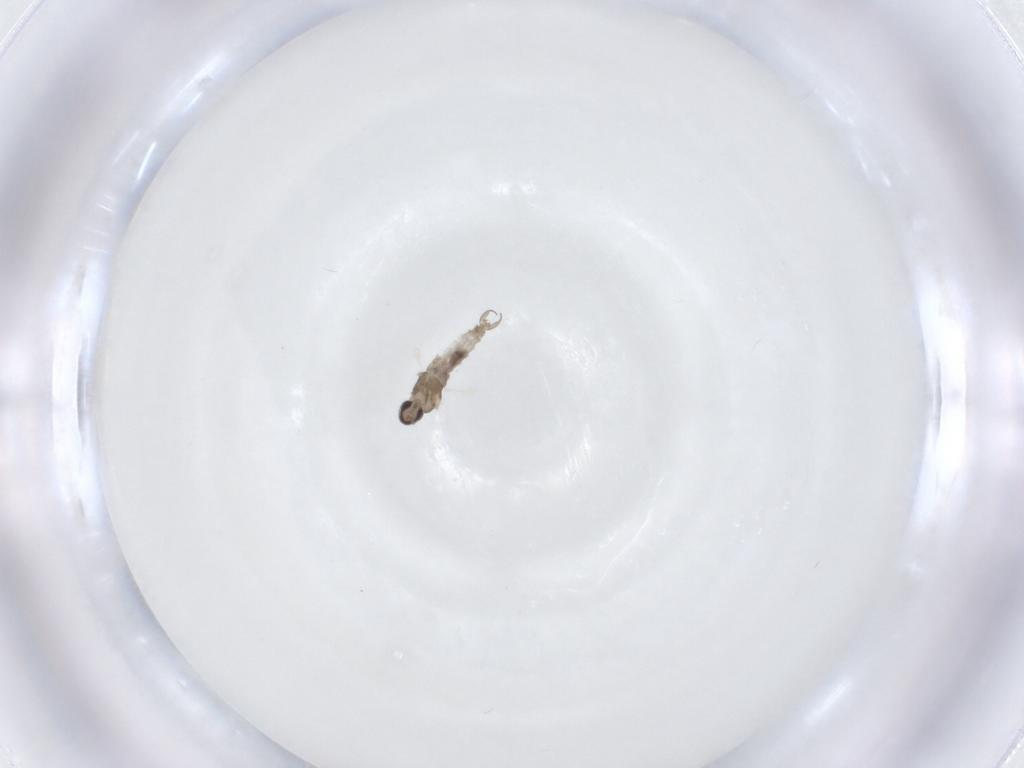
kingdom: Animalia
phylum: Arthropoda
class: Insecta
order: Diptera
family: Cecidomyiidae
